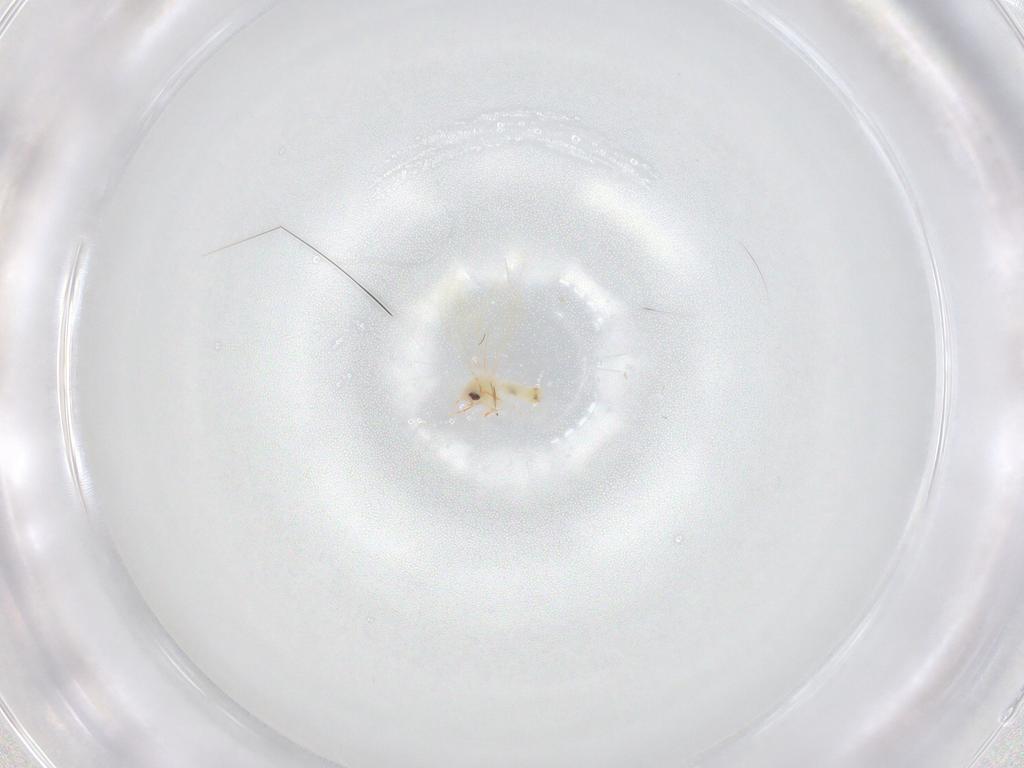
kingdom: Animalia
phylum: Arthropoda
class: Insecta
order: Hemiptera
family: Aleyrodidae
